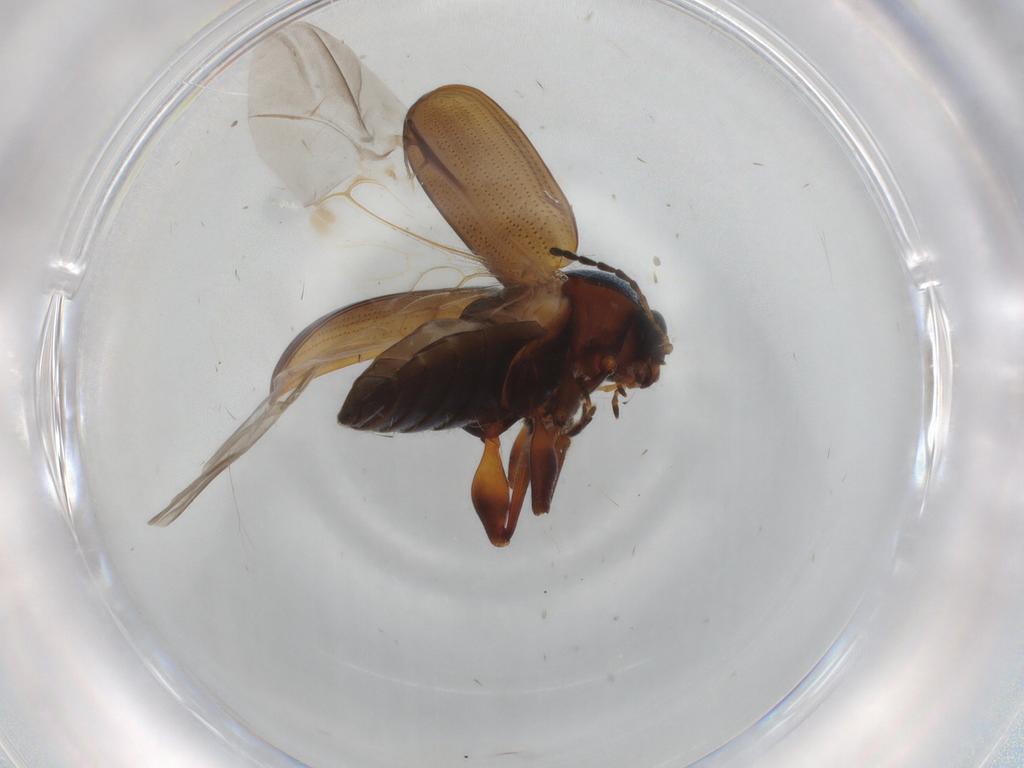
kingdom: Animalia
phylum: Arthropoda
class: Insecta
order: Coleoptera
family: Chrysomelidae
